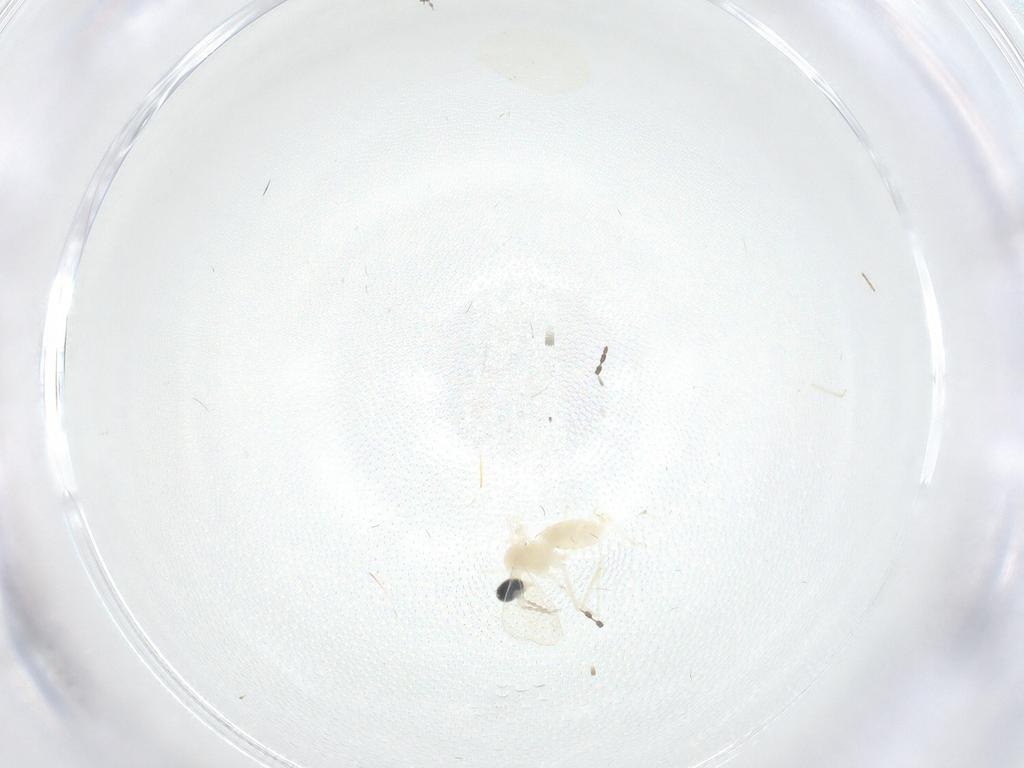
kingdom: Animalia
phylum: Arthropoda
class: Insecta
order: Diptera
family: Cecidomyiidae
